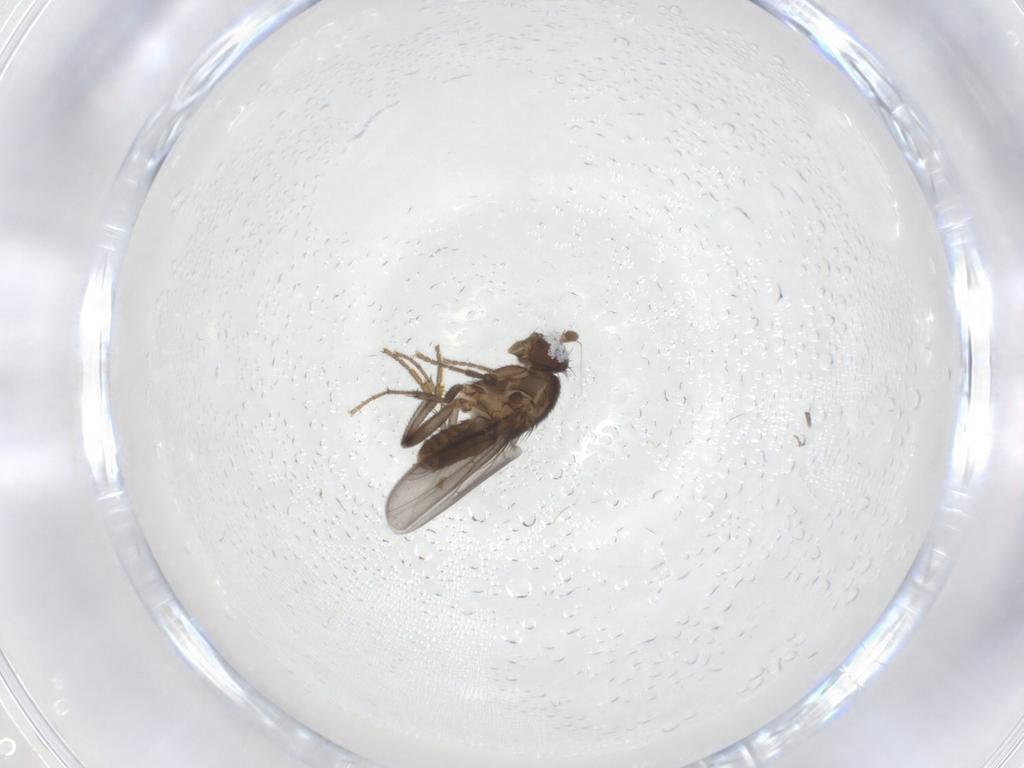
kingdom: Animalia
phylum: Arthropoda
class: Insecta
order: Diptera
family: Sphaeroceridae
